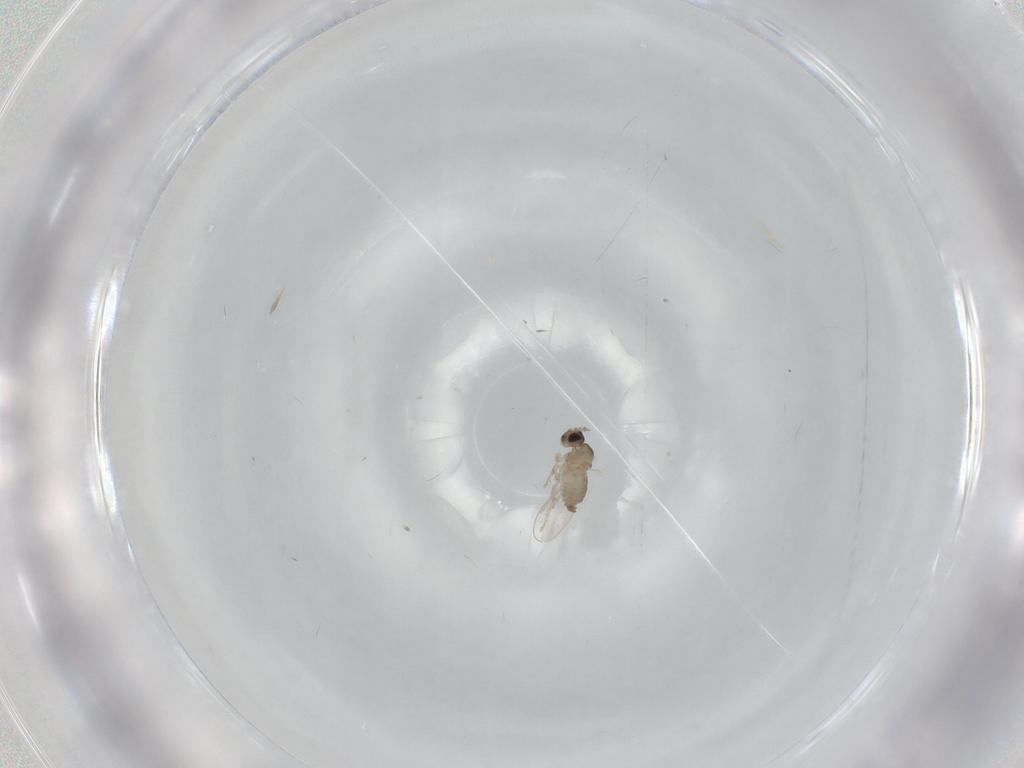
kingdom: Animalia
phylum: Arthropoda
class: Insecta
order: Diptera
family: Cecidomyiidae
